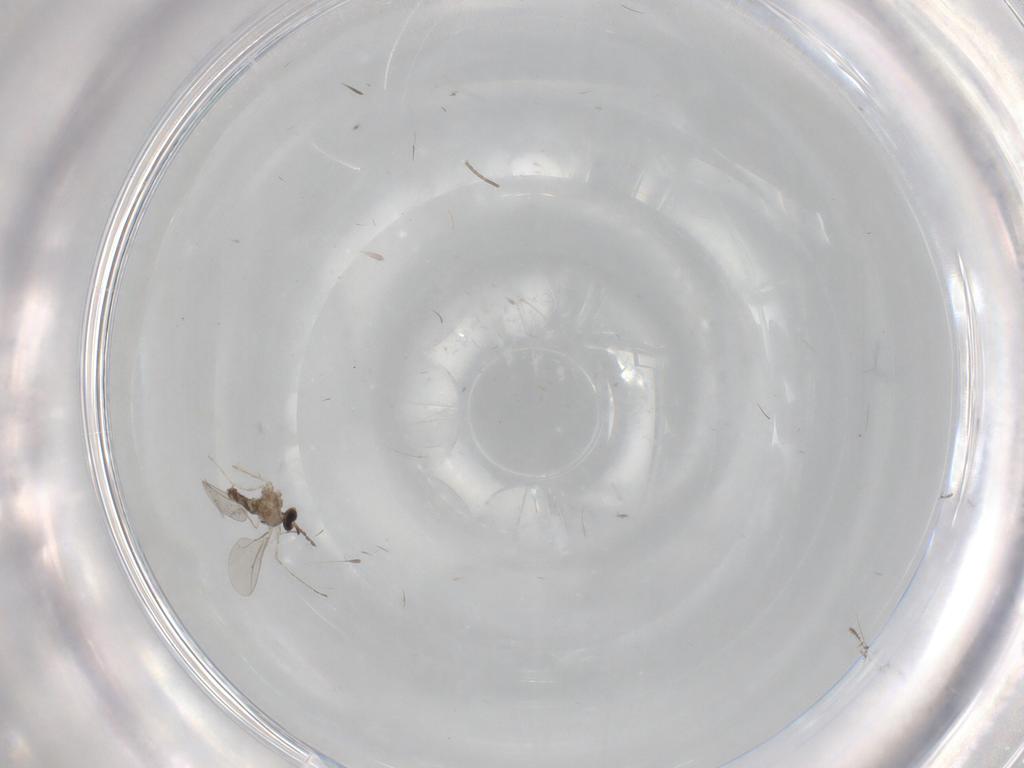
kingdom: Animalia
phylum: Arthropoda
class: Insecta
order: Diptera
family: Cecidomyiidae
